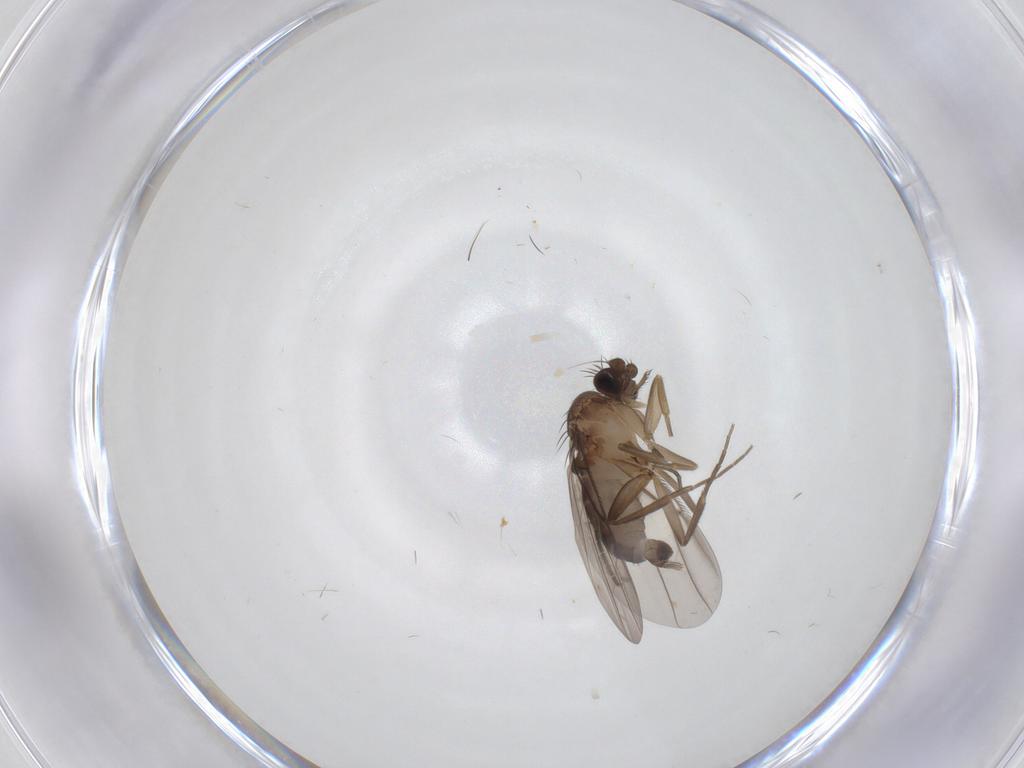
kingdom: Animalia
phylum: Arthropoda
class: Insecta
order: Diptera
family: Phoridae
